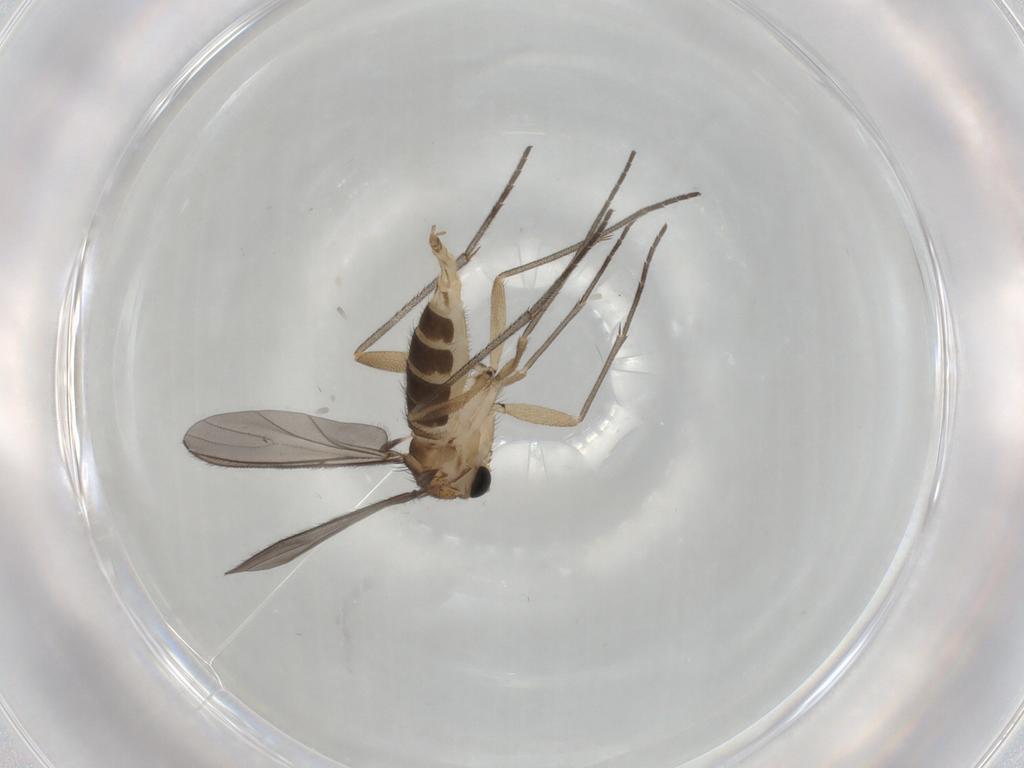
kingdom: Animalia
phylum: Arthropoda
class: Insecta
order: Diptera
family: Sciaridae
